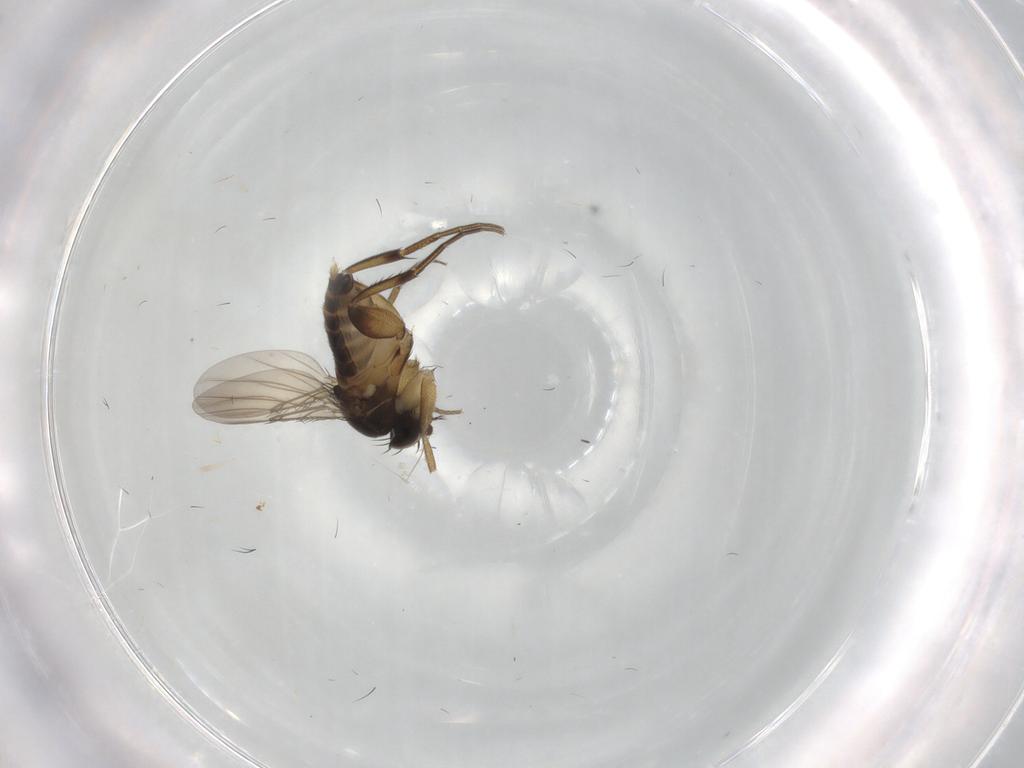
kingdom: Animalia
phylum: Arthropoda
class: Insecta
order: Diptera
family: Phoridae
